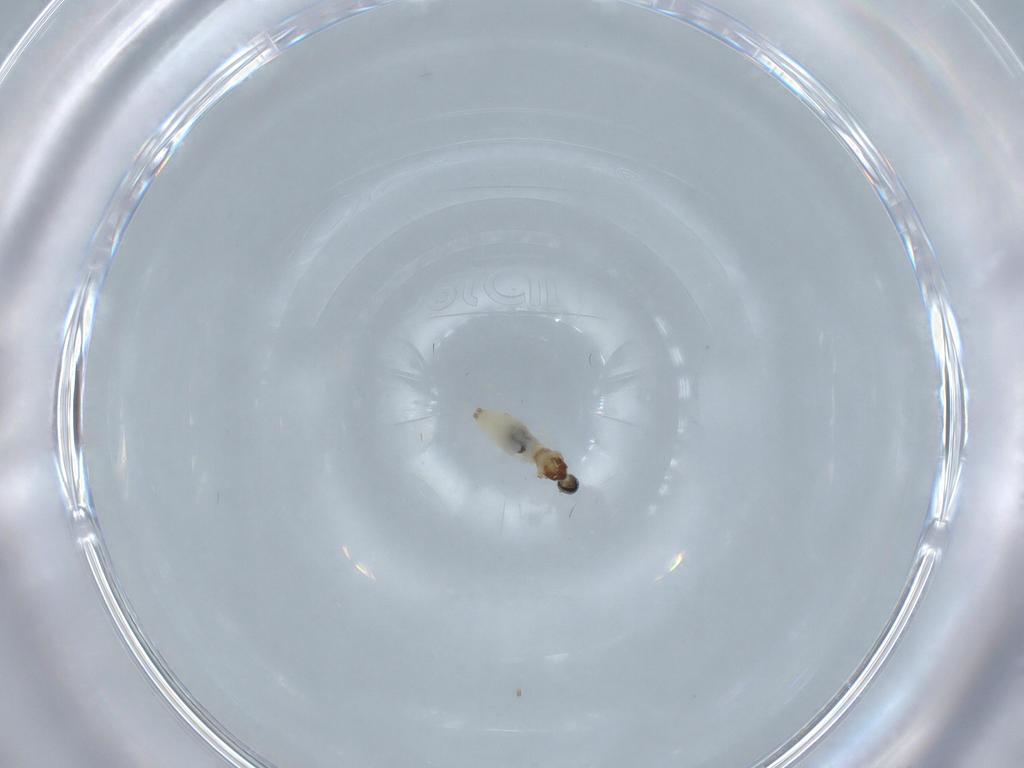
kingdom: Animalia
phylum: Arthropoda
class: Insecta
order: Diptera
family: Cecidomyiidae
